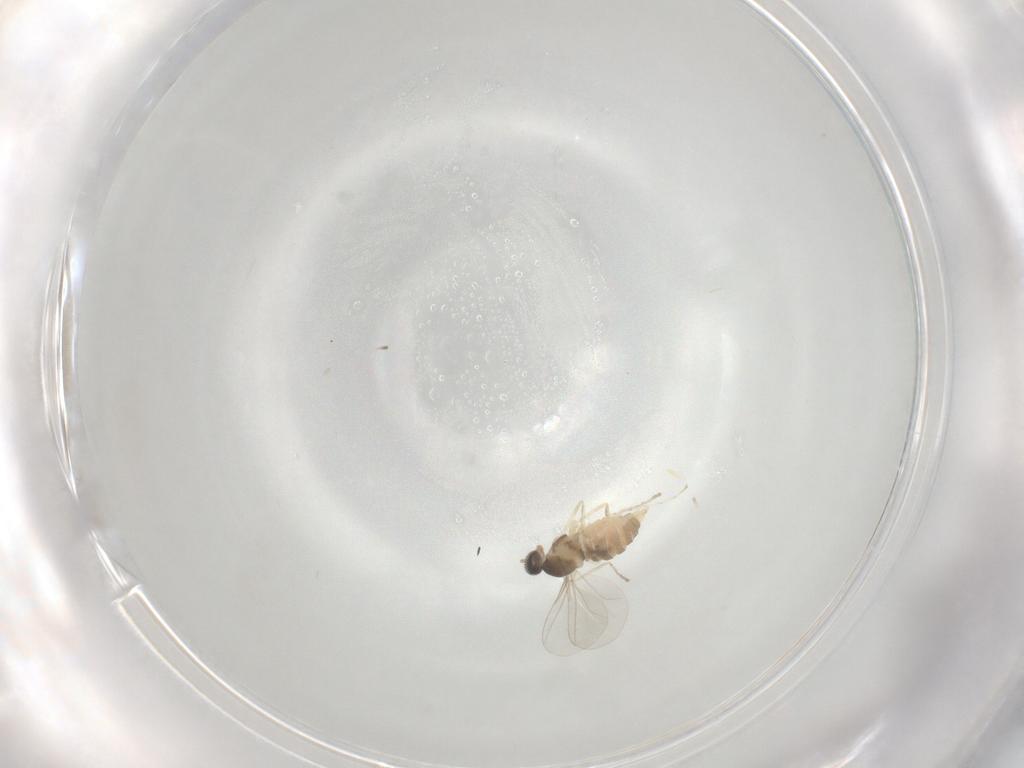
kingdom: Animalia
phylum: Arthropoda
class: Insecta
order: Diptera
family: Cecidomyiidae
